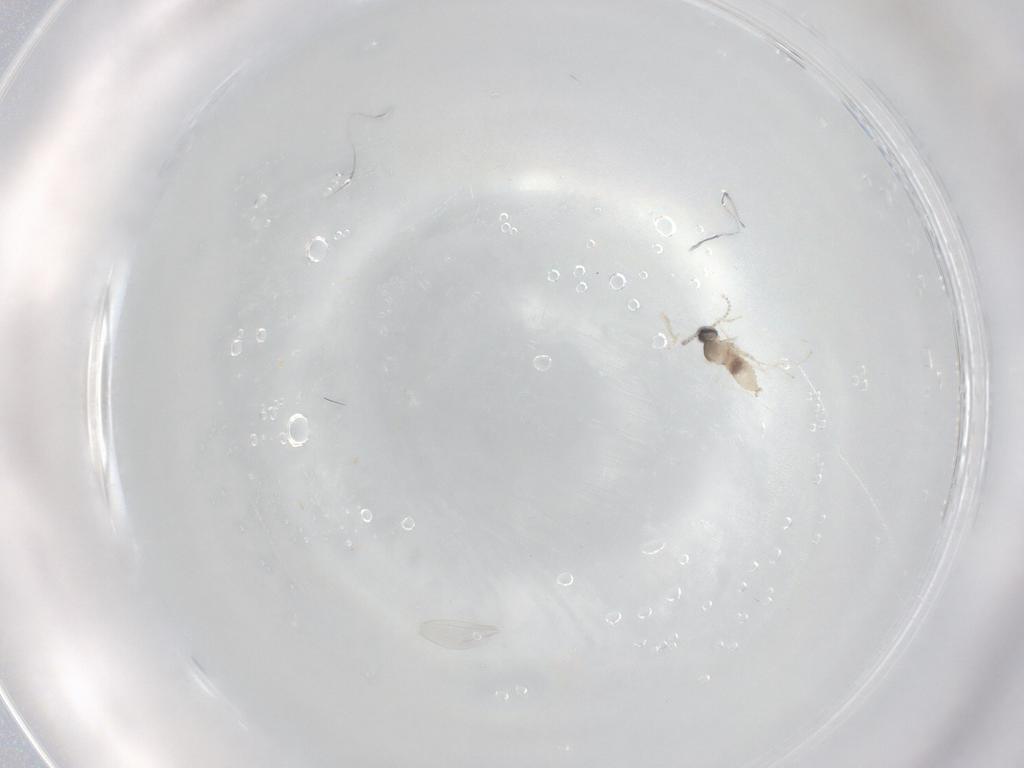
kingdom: Animalia
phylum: Arthropoda
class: Insecta
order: Diptera
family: Cecidomyiidae
